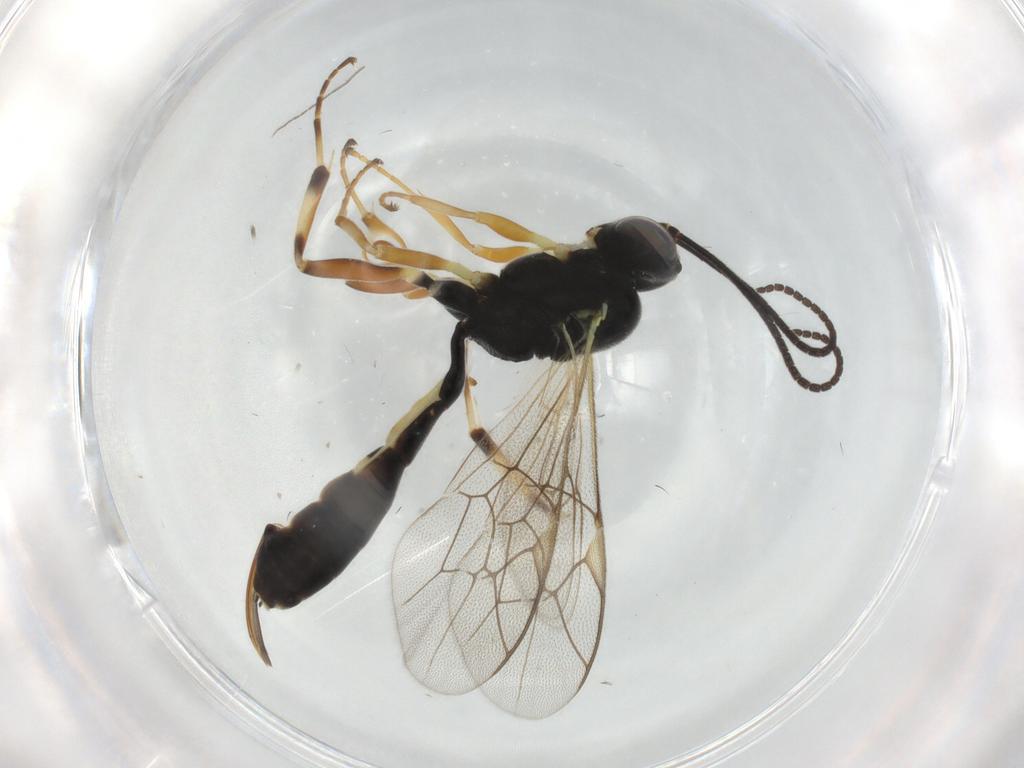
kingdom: Animalia
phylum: Arthropoda
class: Insecta
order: Hymenoptera
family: Ichneumonidae
